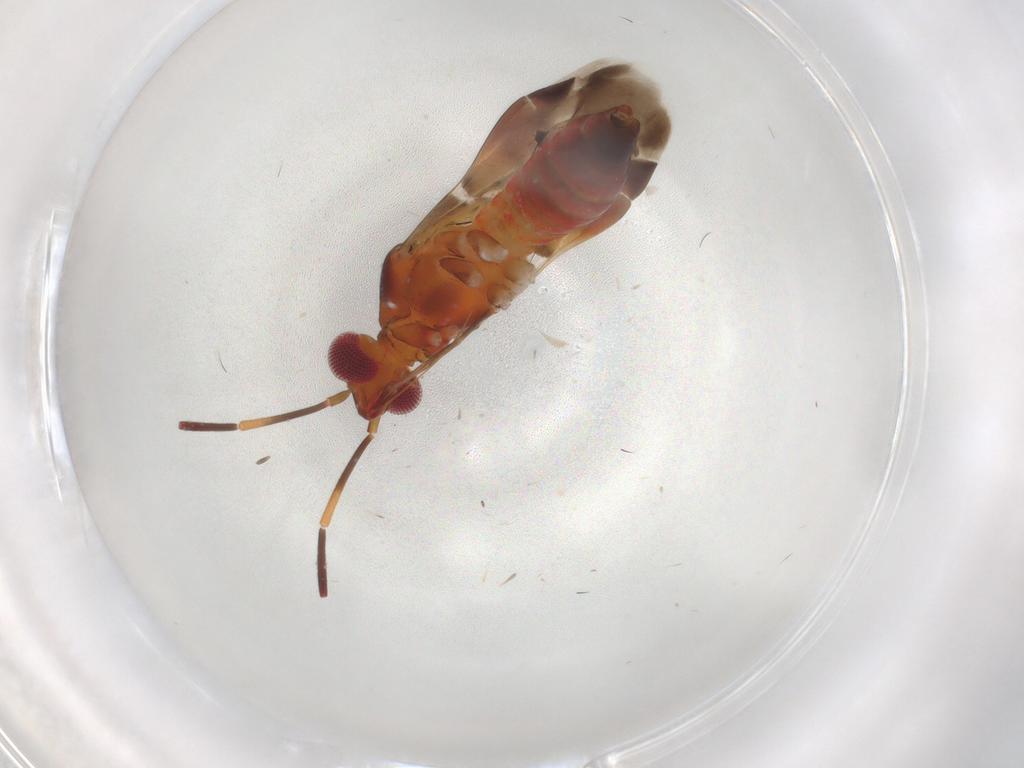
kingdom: Animalia
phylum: Arthropoda
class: Insecta
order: Hemiptera
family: Miridae
